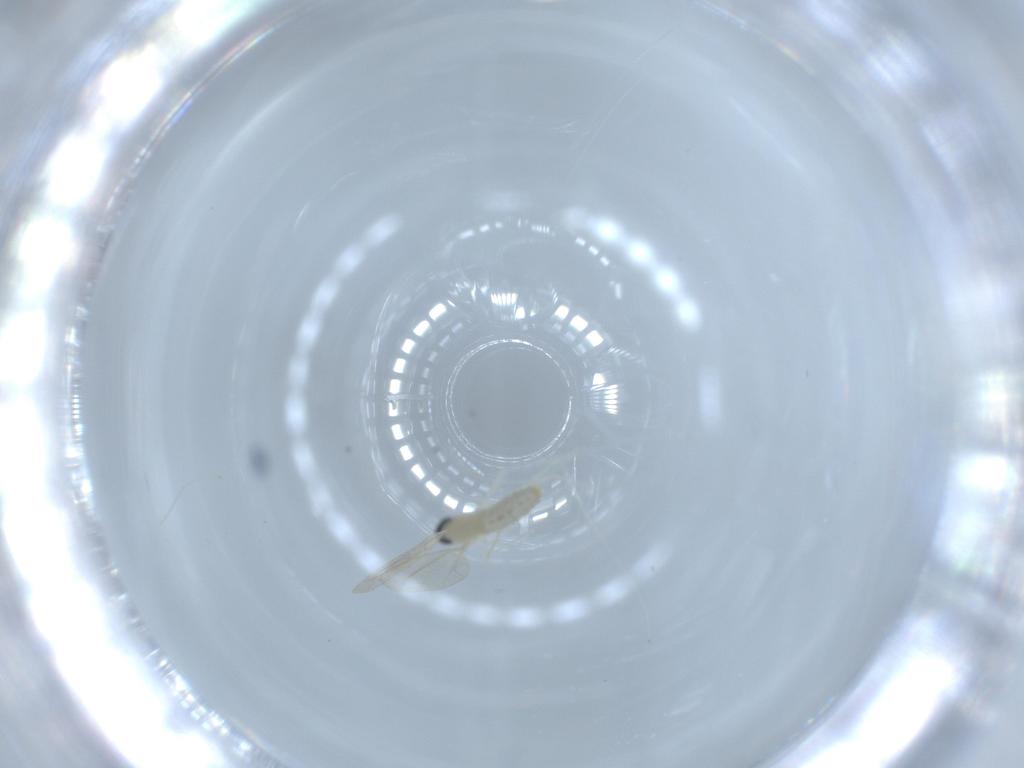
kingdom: Animalia
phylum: Arthropoda
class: Insecta
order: Diptera
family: Cecidomyiidae
